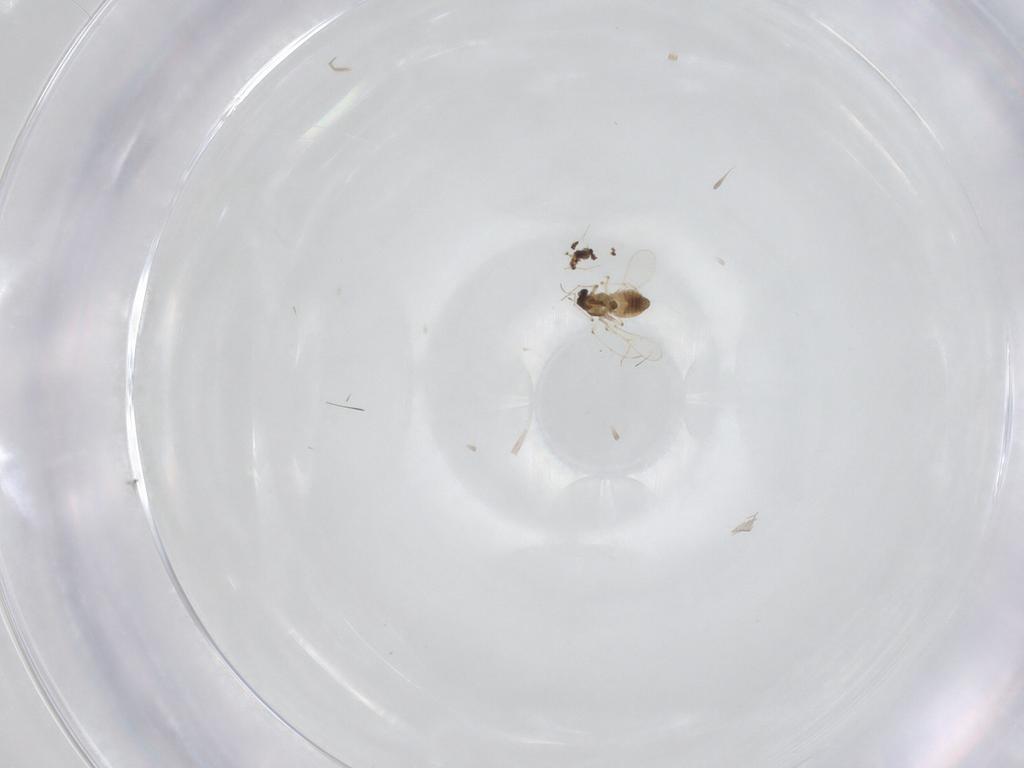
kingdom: Animalia
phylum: Arthropoda
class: Insecta
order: Diptera
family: Chironomidae
